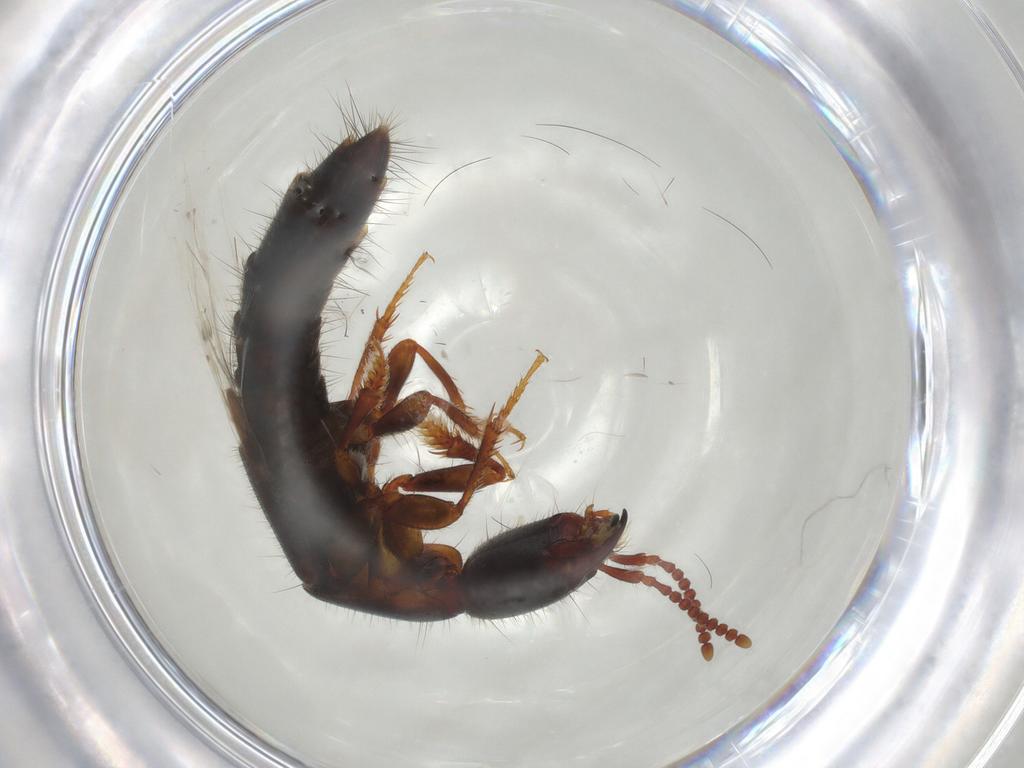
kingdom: Animalia
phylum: Arthropoda
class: Insecta
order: Coleoptera
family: Staphylinidae
